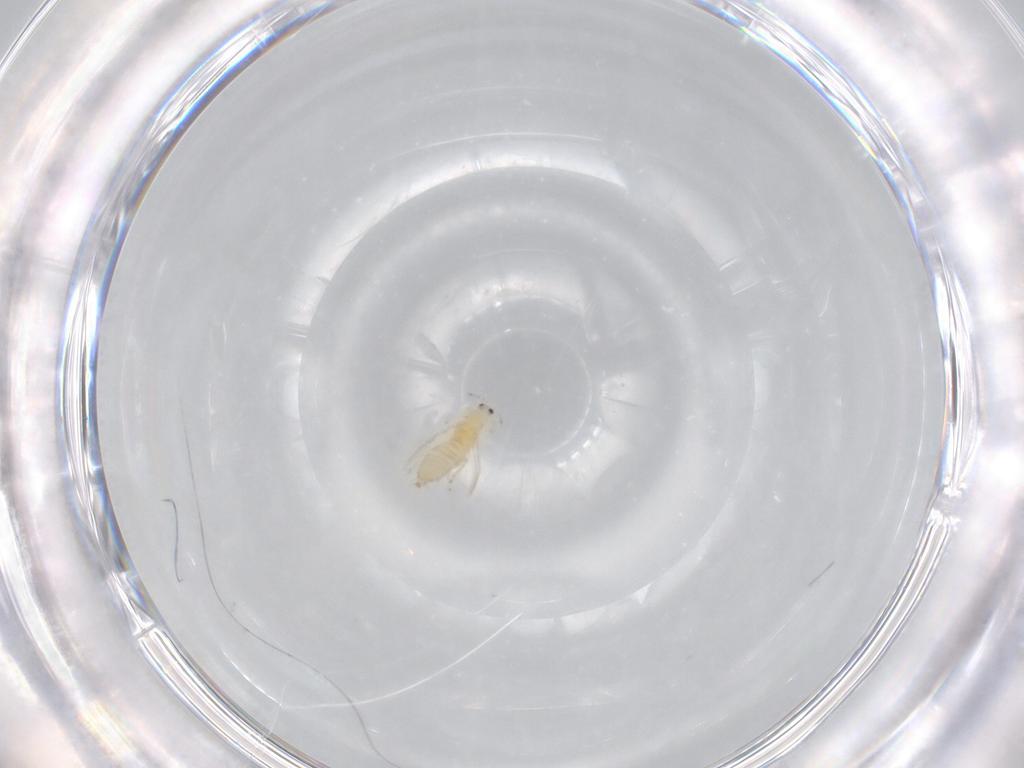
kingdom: Animalia
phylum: Arthropoda
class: Insecta
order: Thysanoptera
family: Thripidae
